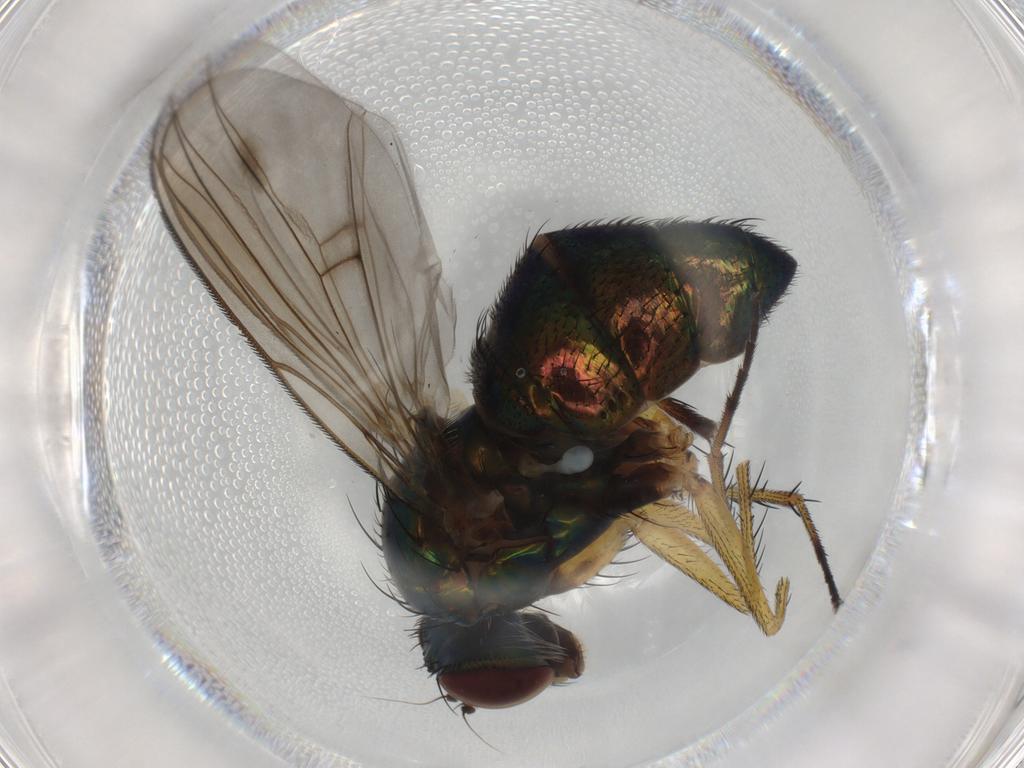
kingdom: Animalia
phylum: Arthropoda
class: Insecta
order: Diptera
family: Dolichopodidae
